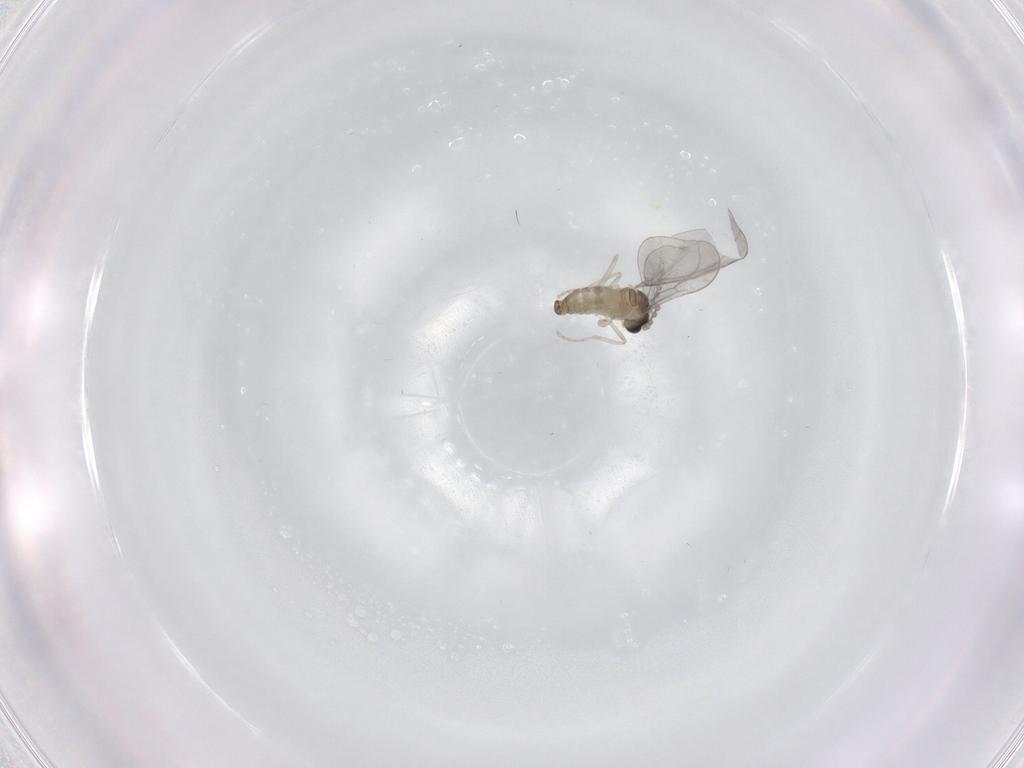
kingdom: Animalia
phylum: Arthropoda
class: Insecta
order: Diptera
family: Cecidomyiidae
